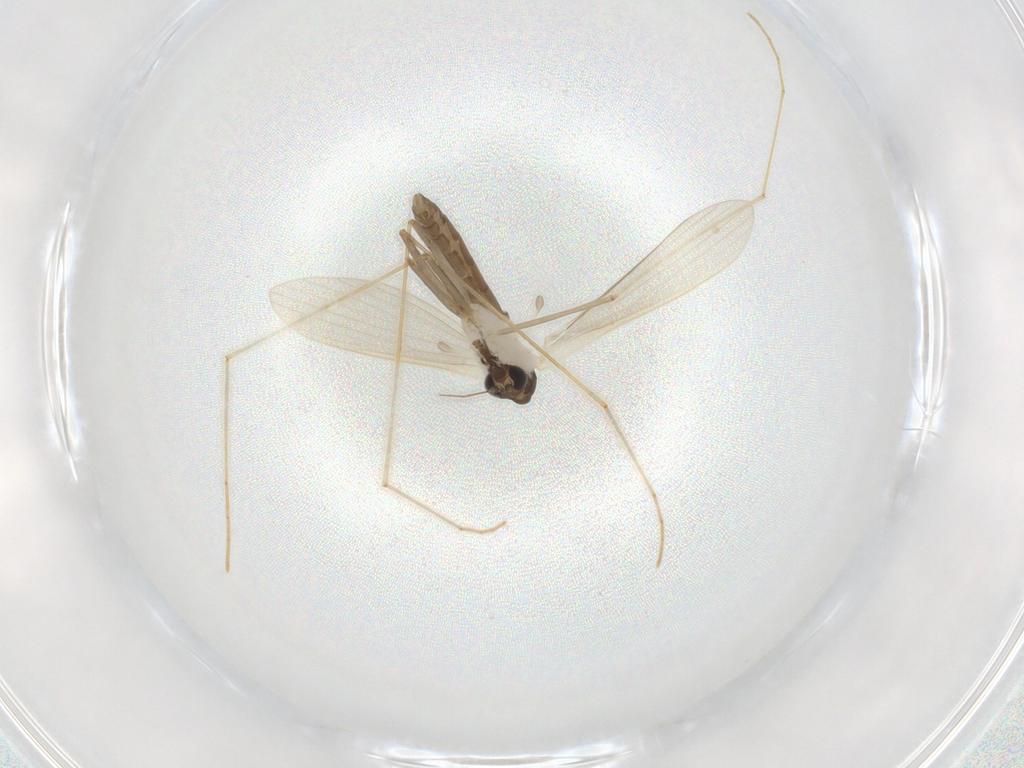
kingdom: Animalia
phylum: Arthropoda
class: Insecta
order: Diptera
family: Psychodidae
